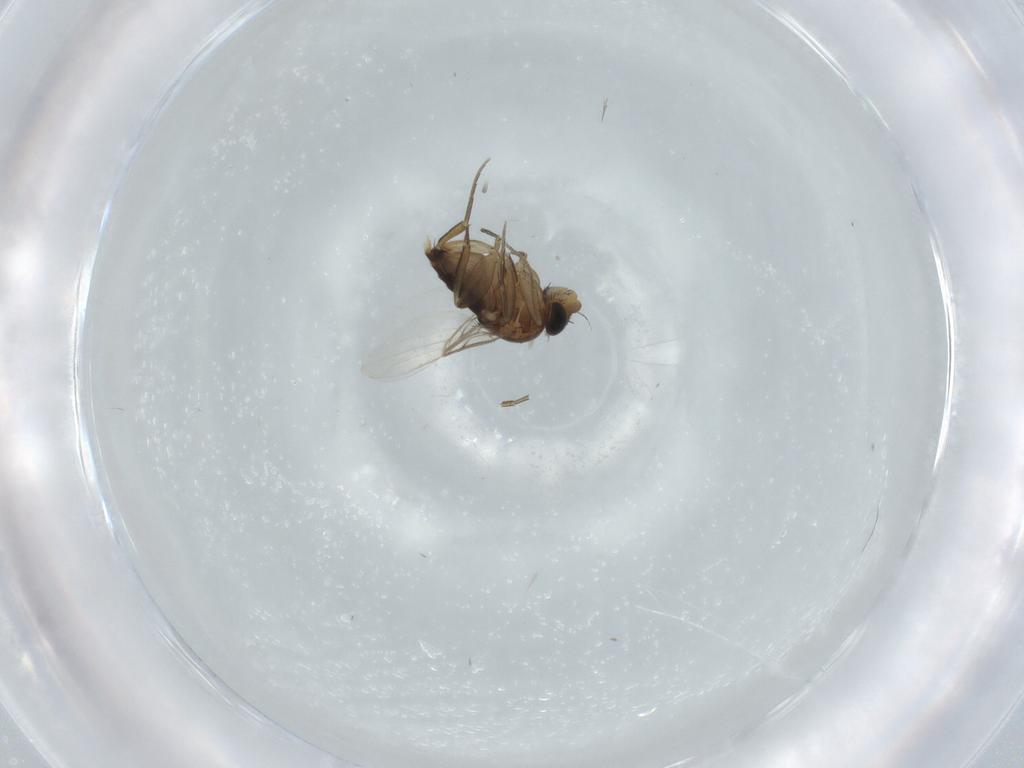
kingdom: Animalia
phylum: Arthropoda
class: Insecta
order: Diptera
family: Phoridae
